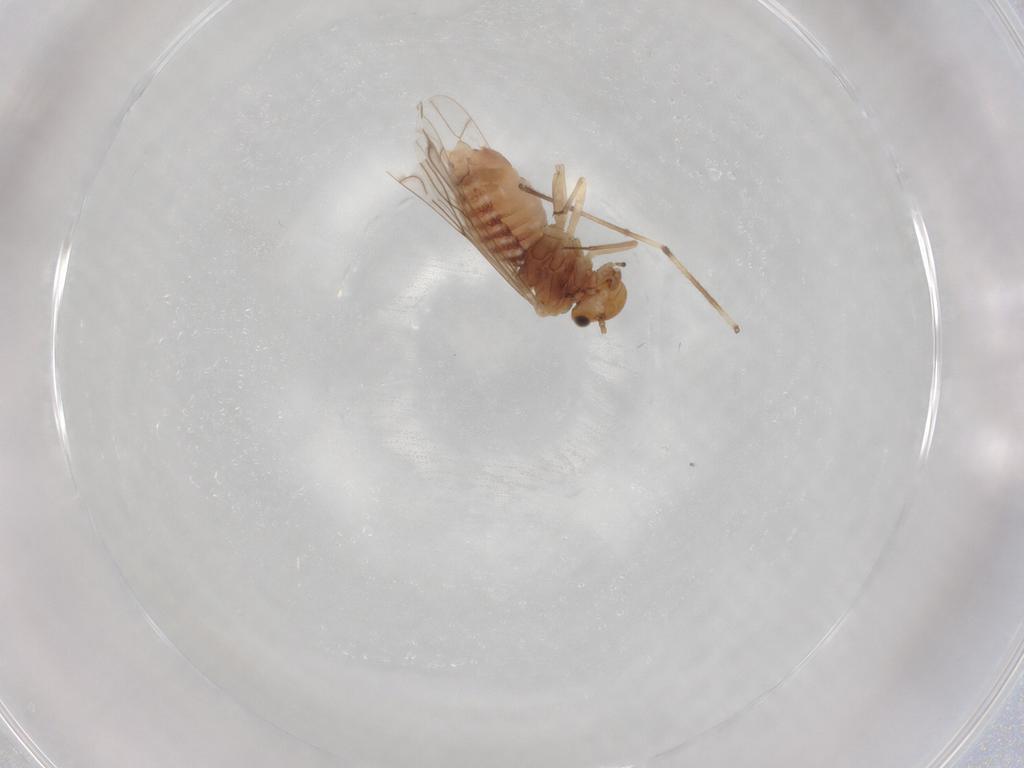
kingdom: Animalia
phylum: Arthropoda
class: Insecta
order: Psocodea
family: Lachesillidae
